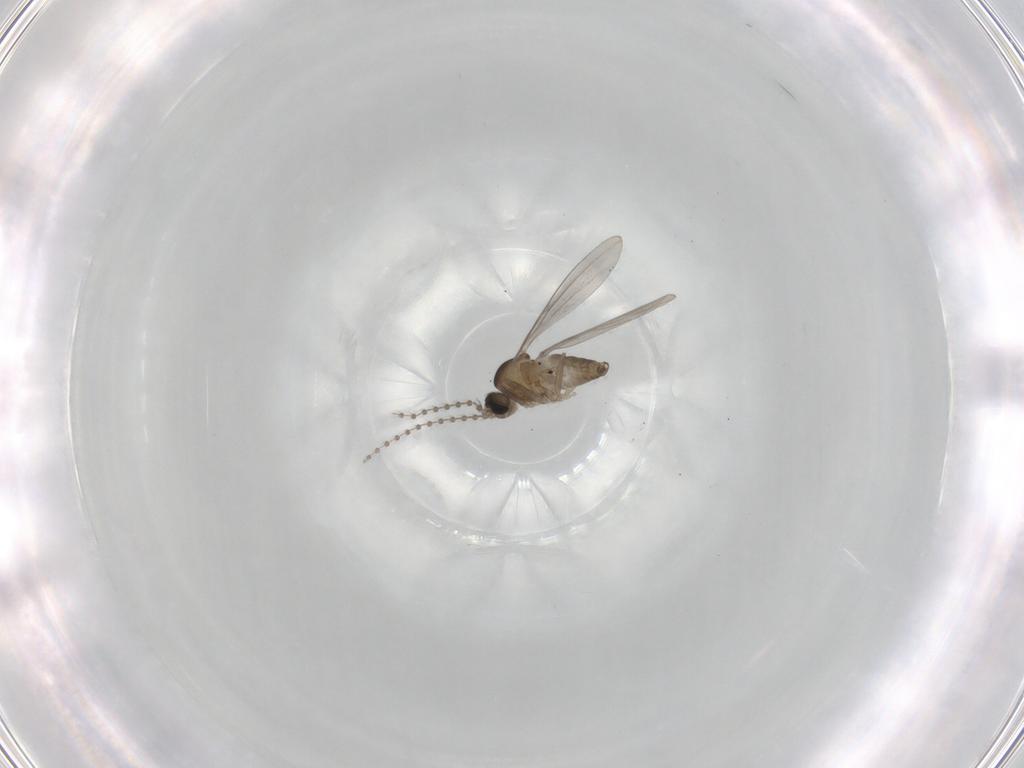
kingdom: Animalia
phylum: Arthropoda
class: Insecta
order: Diptera
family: Cecidomyiidae
